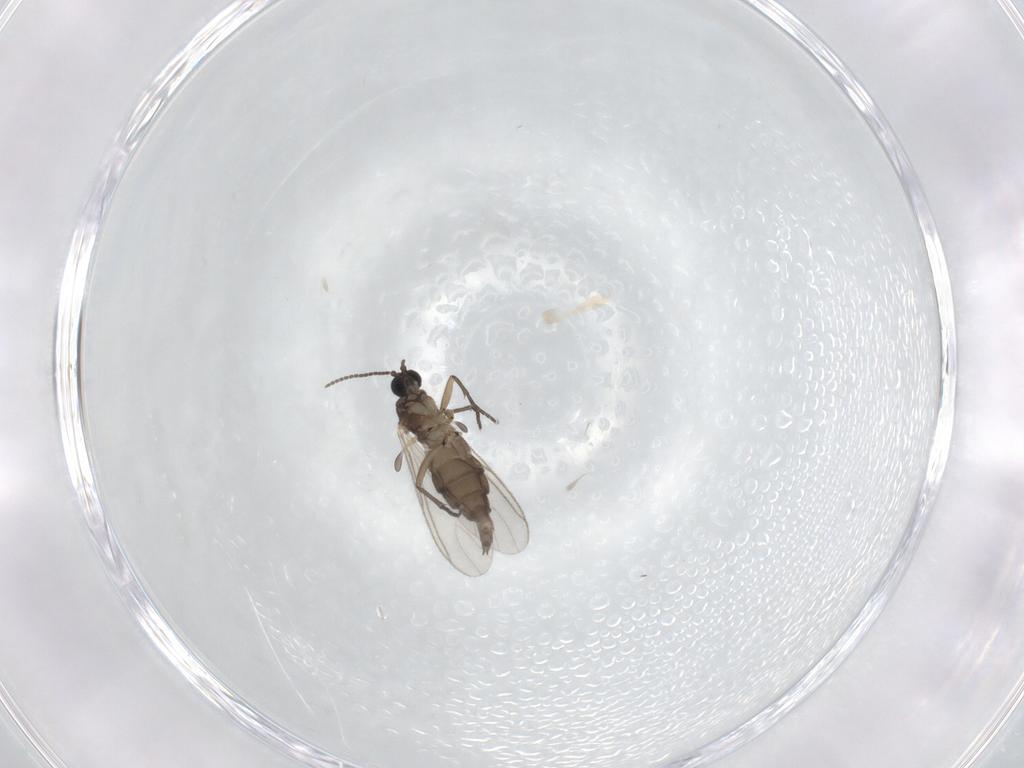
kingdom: Animalia
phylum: Arthropoda
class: Insecta
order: Diptera
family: Sciaridae
